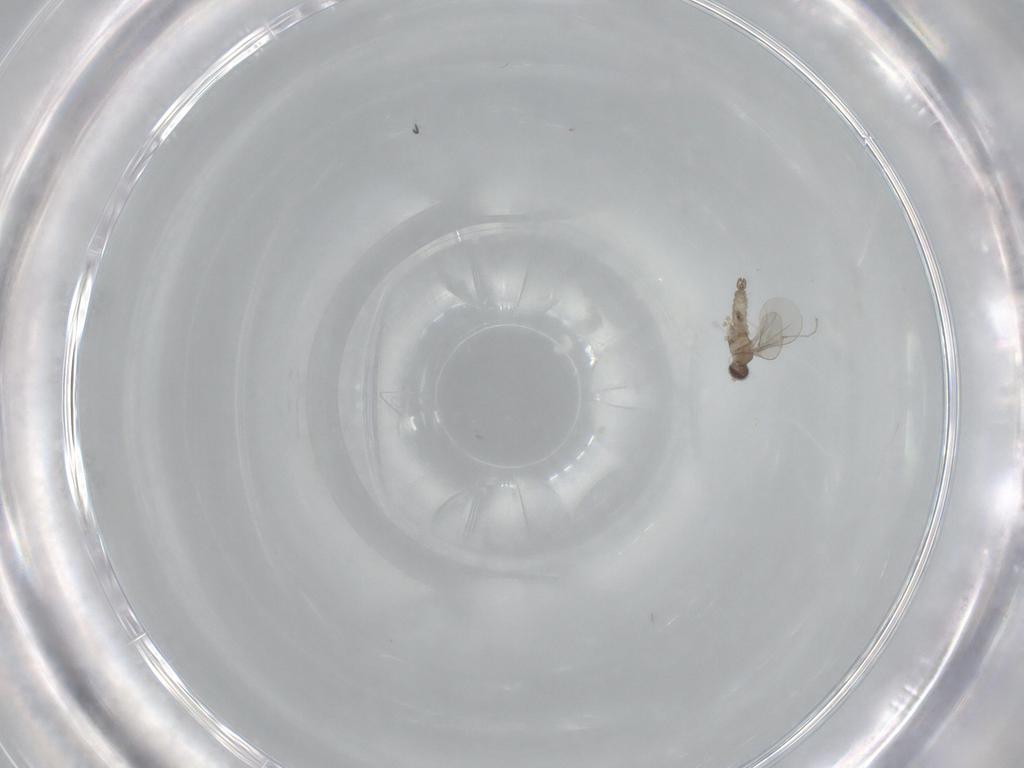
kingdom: Animalia
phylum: Arthropoda
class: Insecta
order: Diptera
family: Cecidomyiidae
